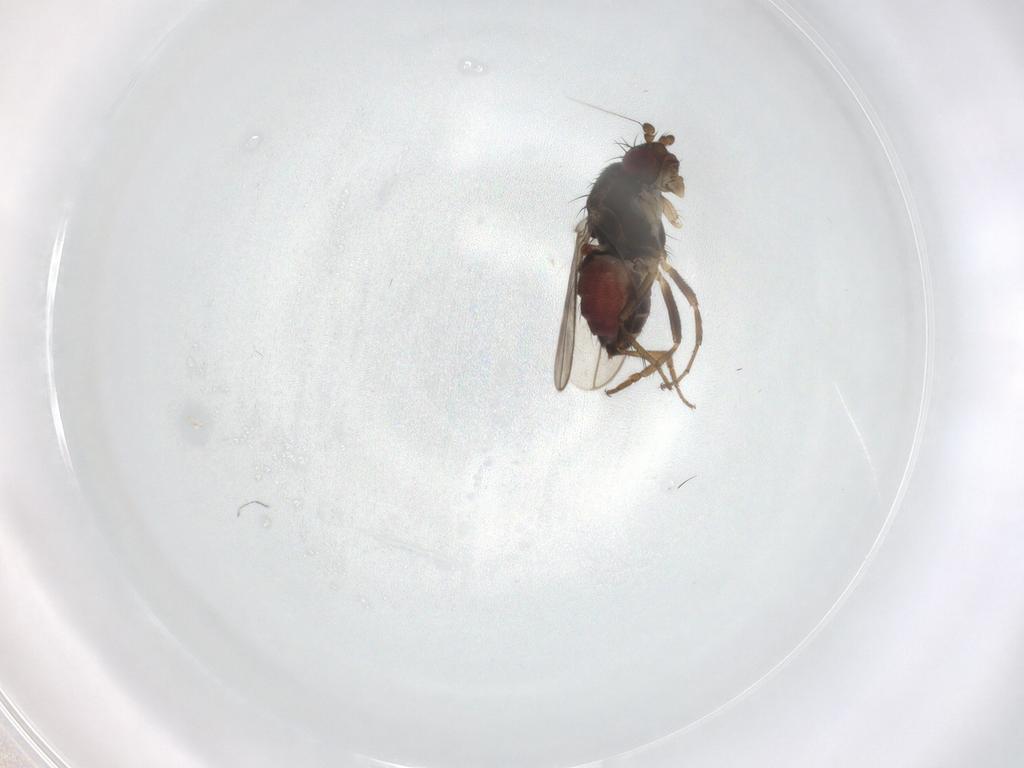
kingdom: Animalia
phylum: Arthropoda
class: Insecta
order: Diptera
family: Sphaeroceridae
